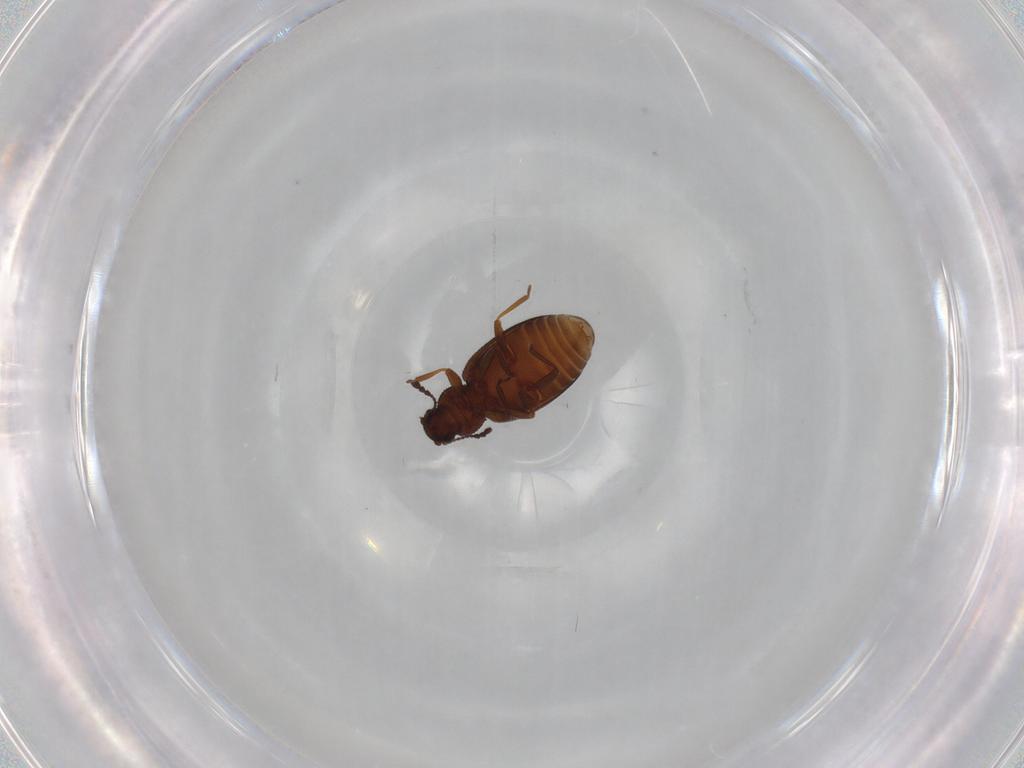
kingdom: Animalia
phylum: Arthropoda
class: Insecta
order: Coleoptera
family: Latridiidae
